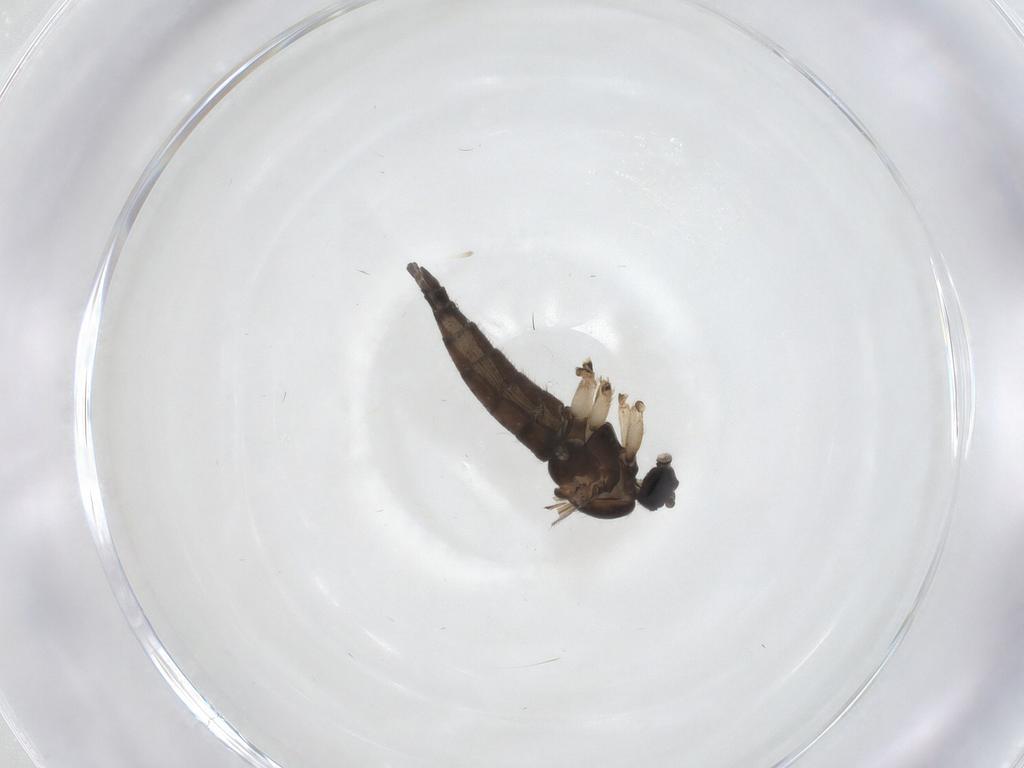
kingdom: Animalia
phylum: Arthropoda
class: Insecta
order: Diptera
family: Sciaridae
